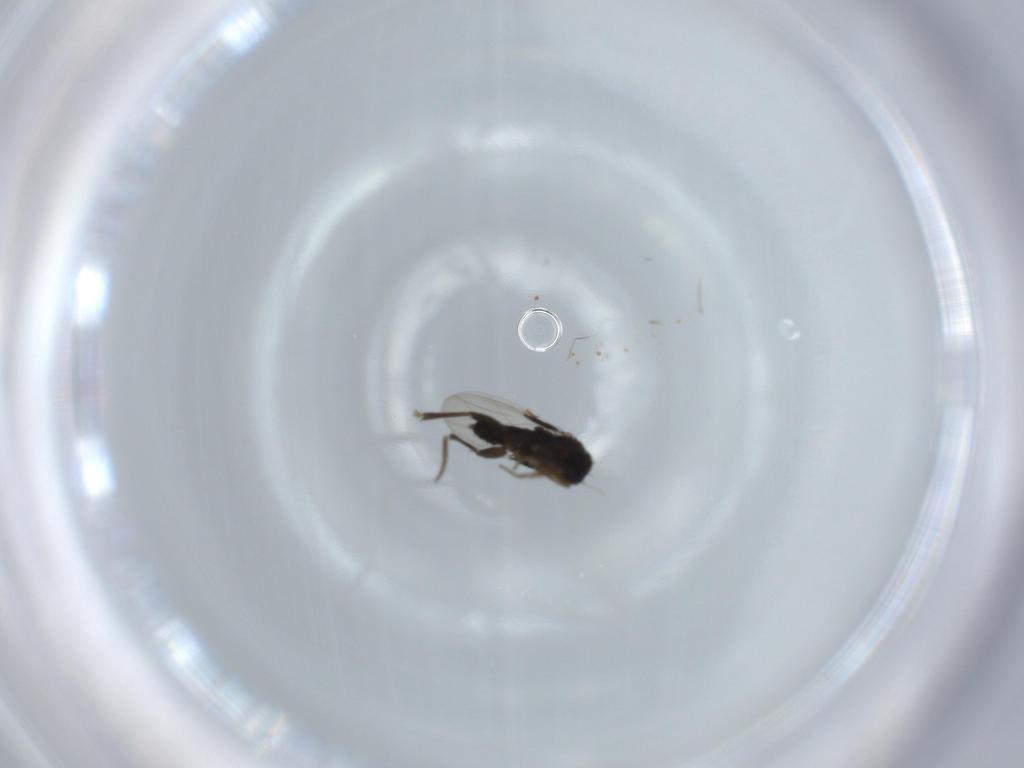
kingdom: Animalia
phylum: Arthropoda
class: Insecta
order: Diptera
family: Phoridae
